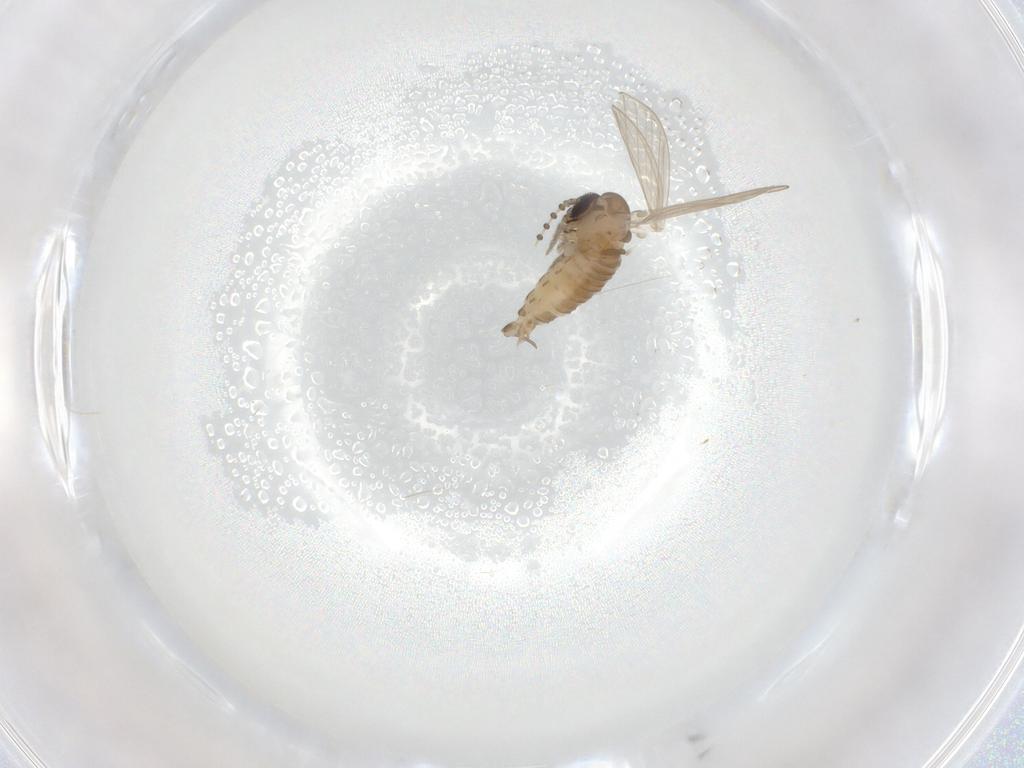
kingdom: Animalia
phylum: Arthropoda
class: Insecta
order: Diptera
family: Psychodidae
